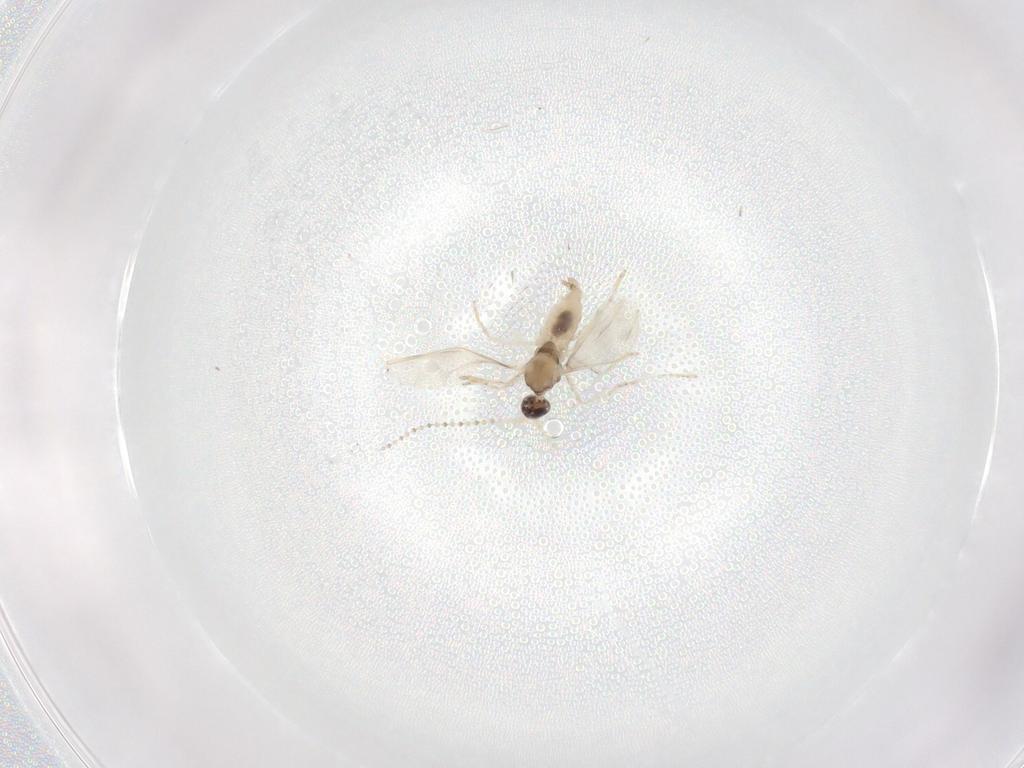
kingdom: Animalia
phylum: Arthropoda
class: Insecta
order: Diptera
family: Cecidomyiidae
